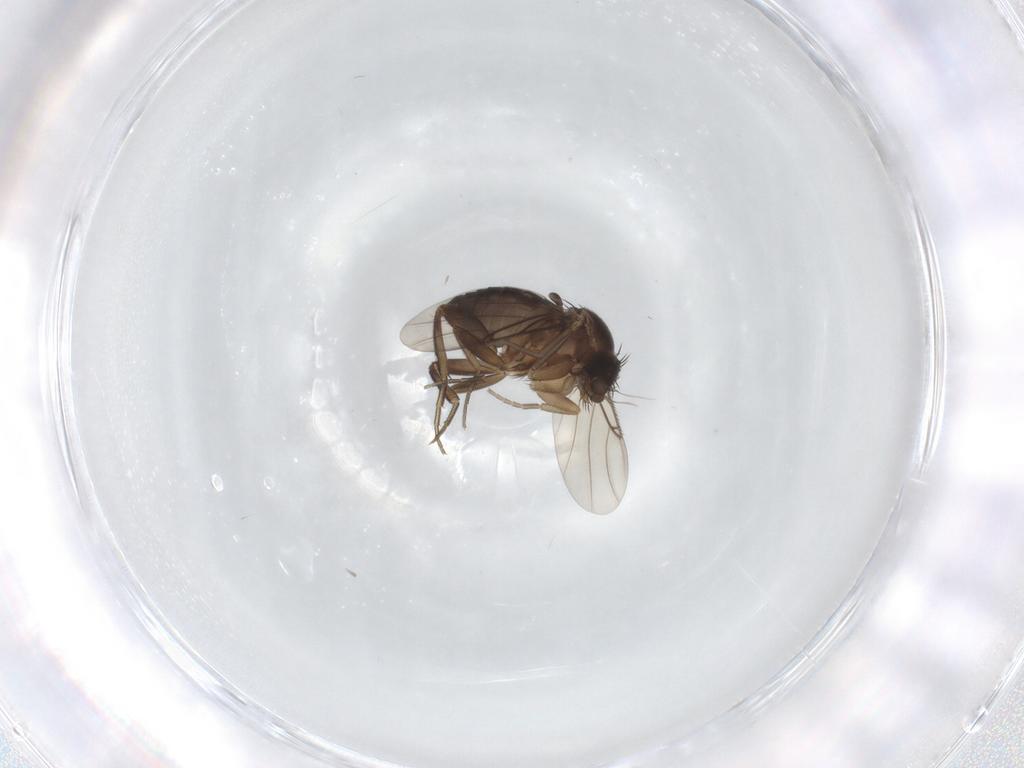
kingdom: Animalia
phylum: Arthropoda
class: Insecta
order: Diptera
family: Phoridae
